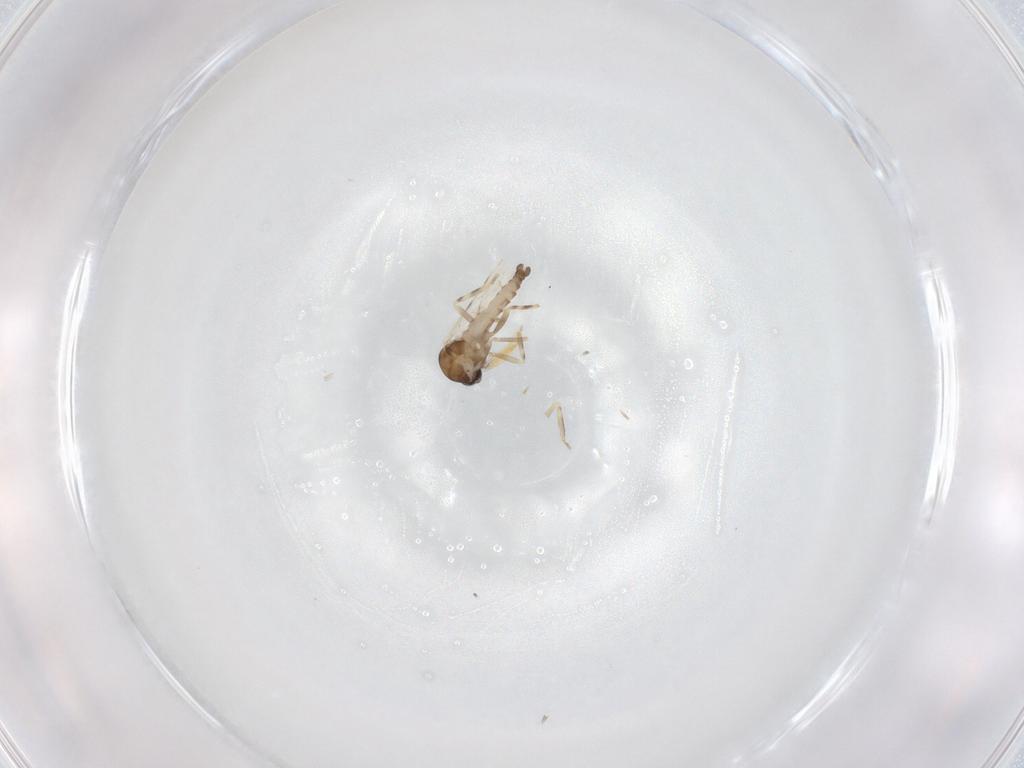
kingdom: Animalia
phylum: Arthropoda
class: Insecta
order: Diptera
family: Ceratopogonidae
